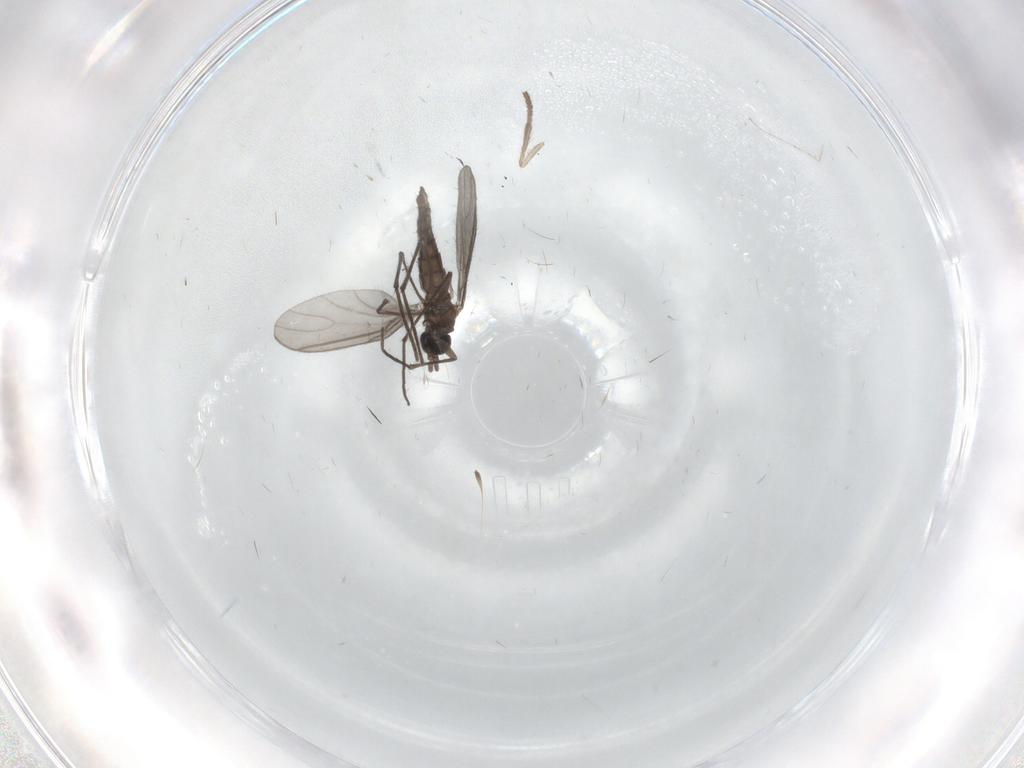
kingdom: Animalia
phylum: Arthropoda
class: Insecta
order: Diptera
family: Sciaridae
